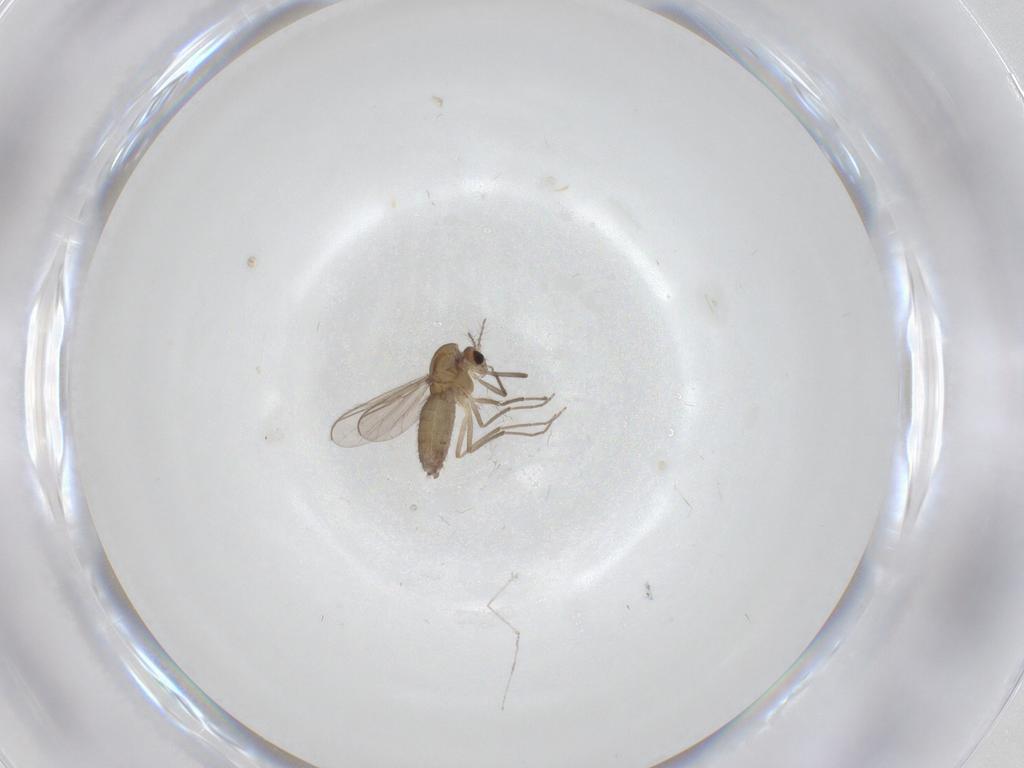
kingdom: Animalia
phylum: Arthropoda
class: Insecta
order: Diptera
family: Chironomidae
